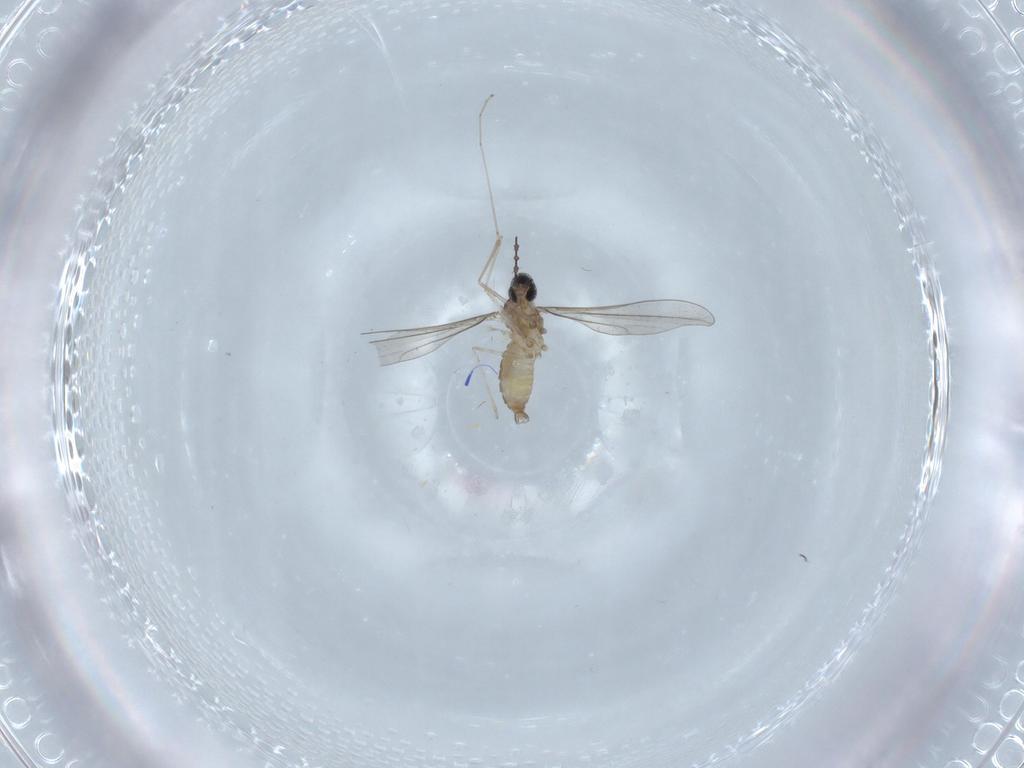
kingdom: Animalia
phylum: Arthropoda
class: Insecta
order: Diptera
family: Cecidomyiidae
